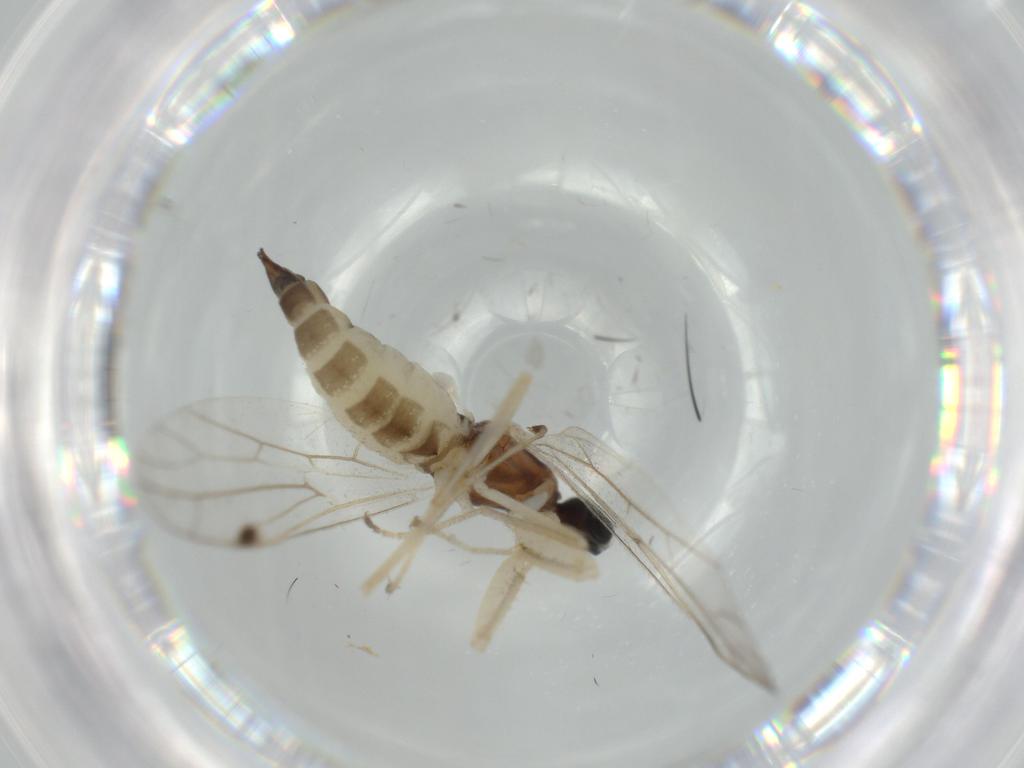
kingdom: Animalia
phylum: Arthropoda
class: Insecta
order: Diptera
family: Empididae
